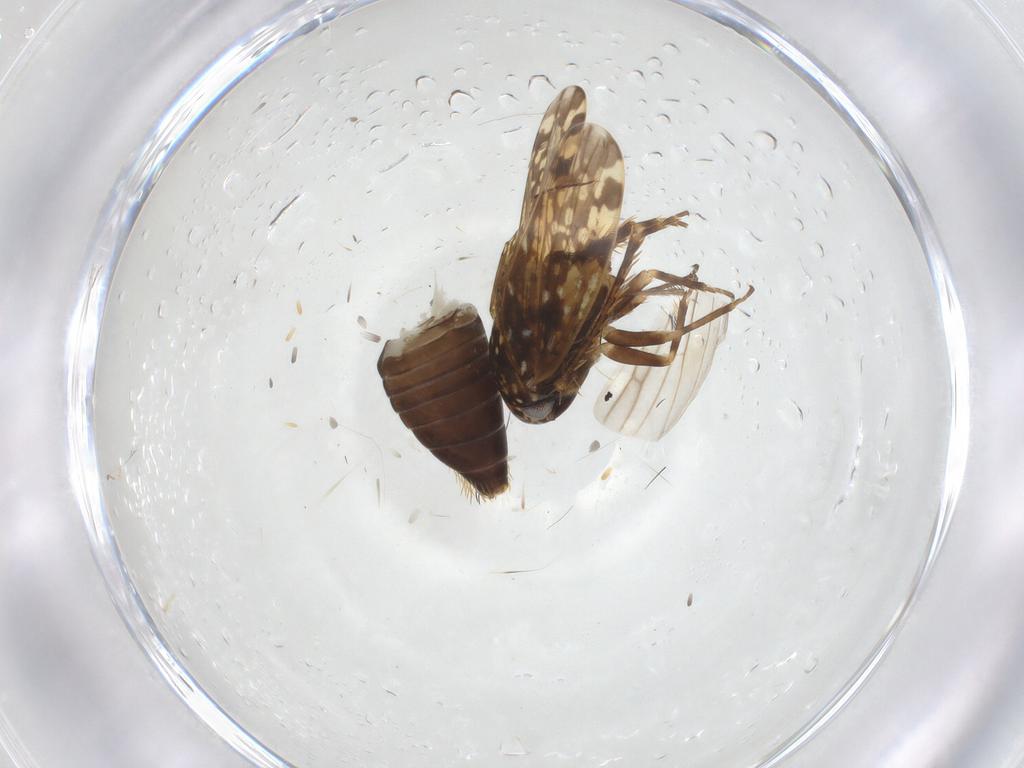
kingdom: Animalia
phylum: Arthropoda
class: Insecta
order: Hemiptera
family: Cicadellidae
